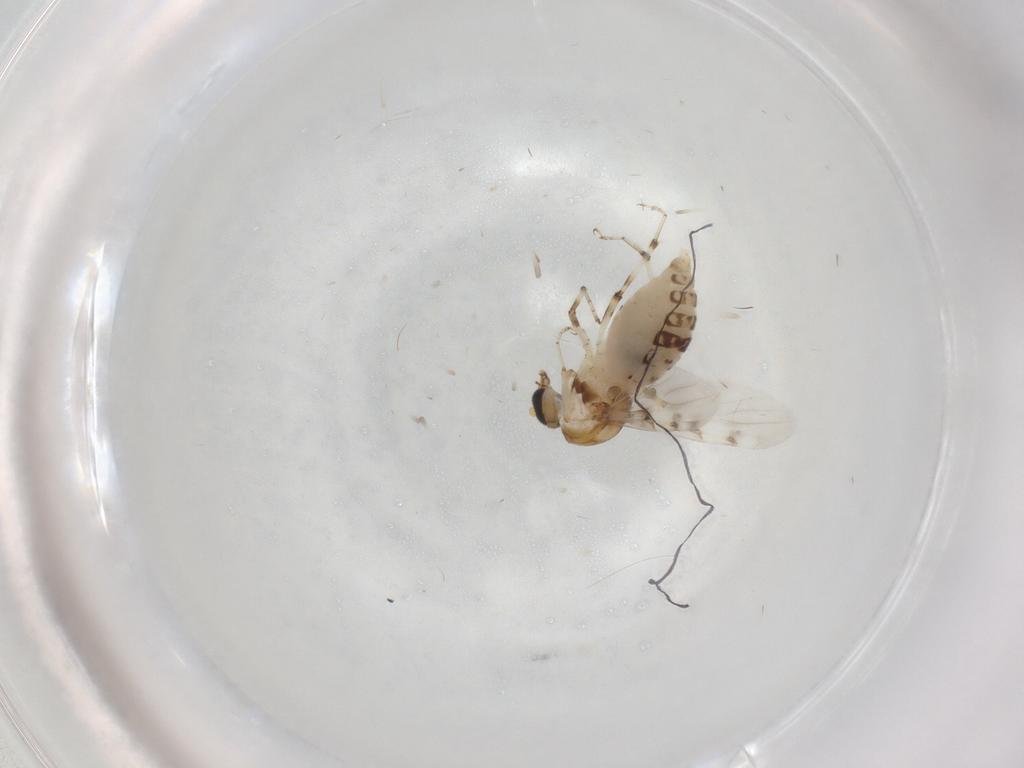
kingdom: Animalia
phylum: Arthropoda
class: Insecta
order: Diptera
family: Ceratopogonidae
